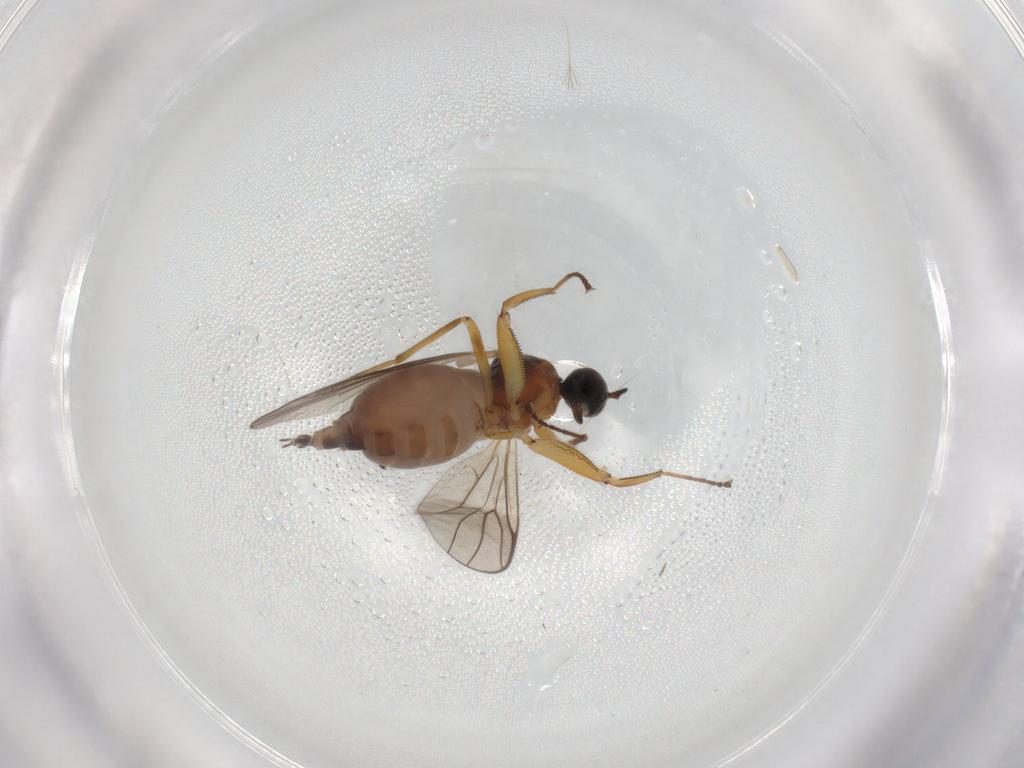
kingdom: Animalia
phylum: Arthropoda
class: Insecta
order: Diptera
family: Hybotidae
